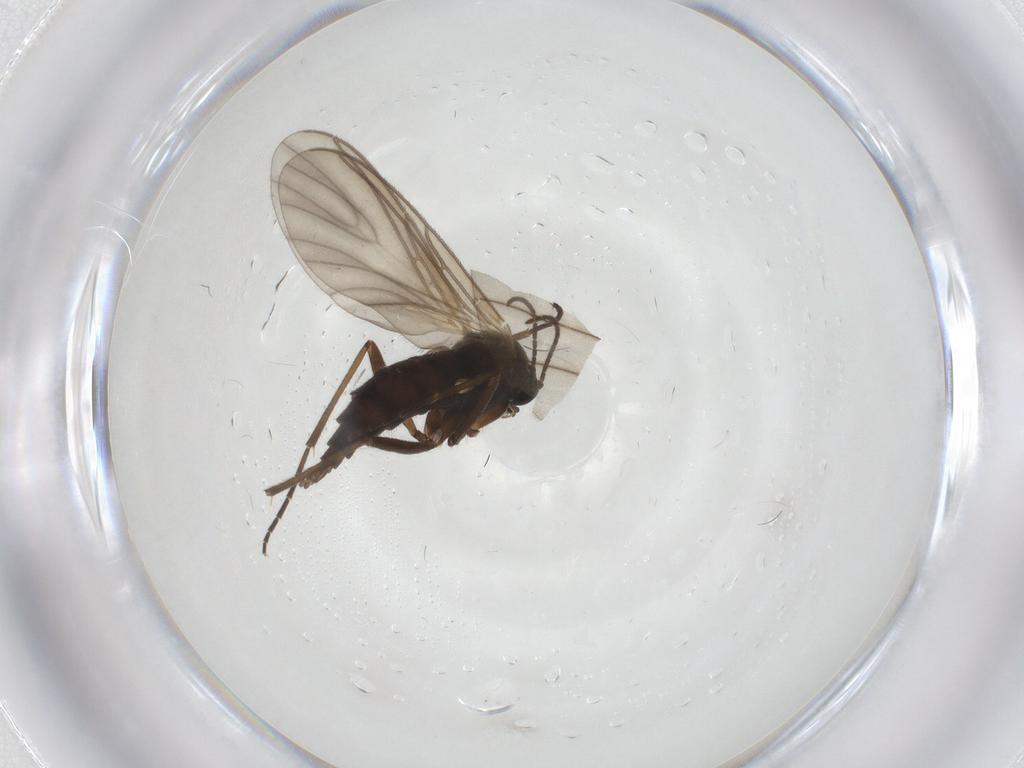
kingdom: Animalia
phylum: Arthropoda
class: Insecta
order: Diptera
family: Sciaridae
